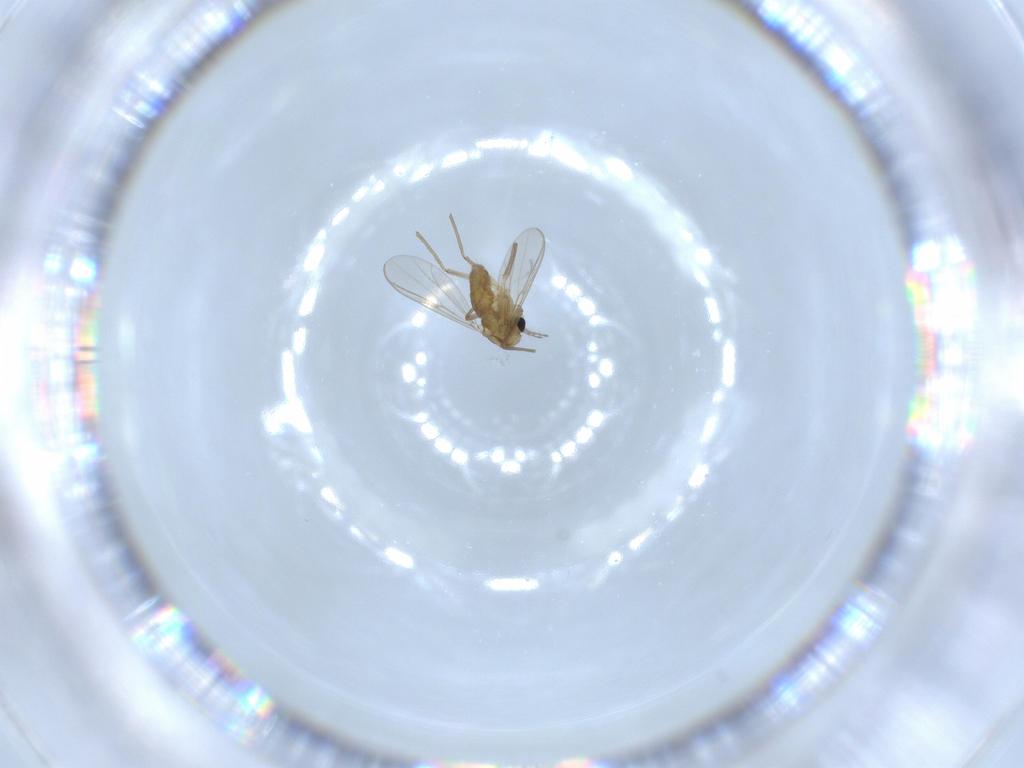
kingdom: Animalia
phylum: Arthropoda
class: Insecta
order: Diptera
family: Chironomidae
